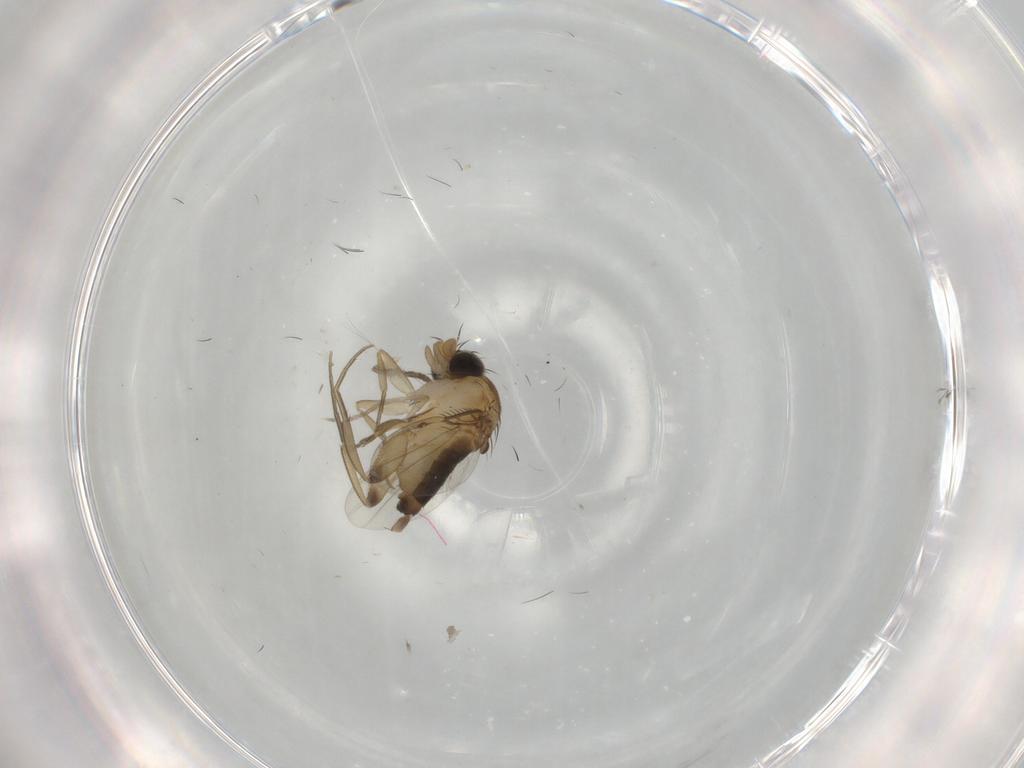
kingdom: Animalia
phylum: Arthropoda
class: Insecta
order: Diptera
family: Phoridae
